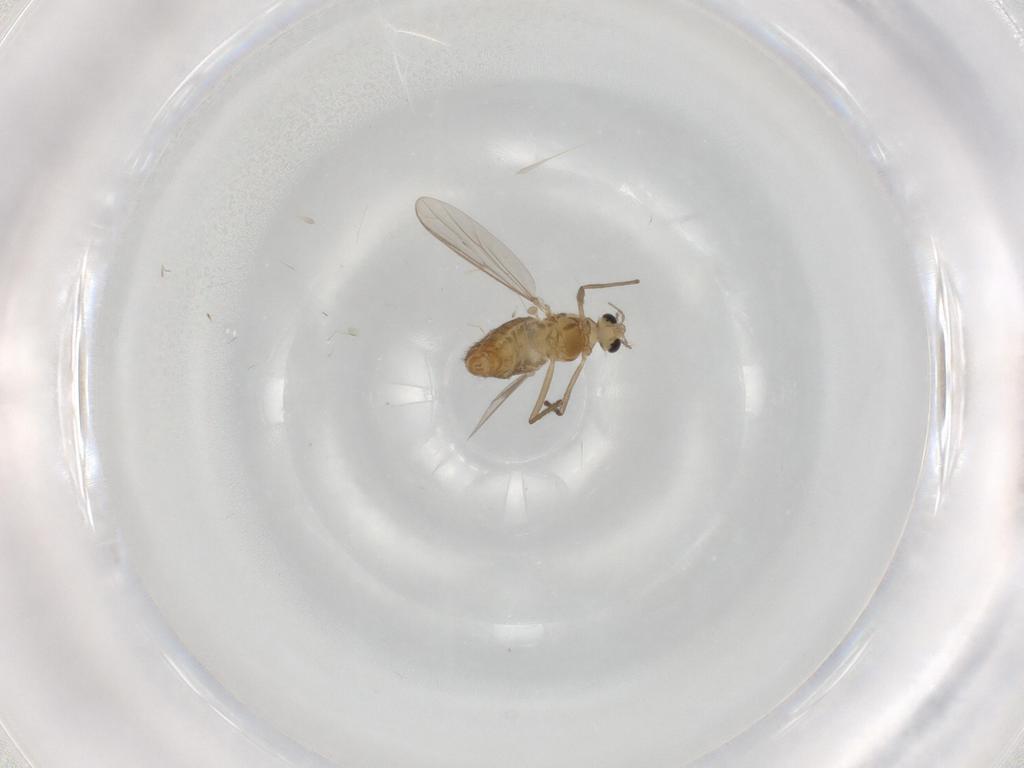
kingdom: Animalia
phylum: Arthropoda
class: Insecta
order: Diptera
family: Chironomidae
